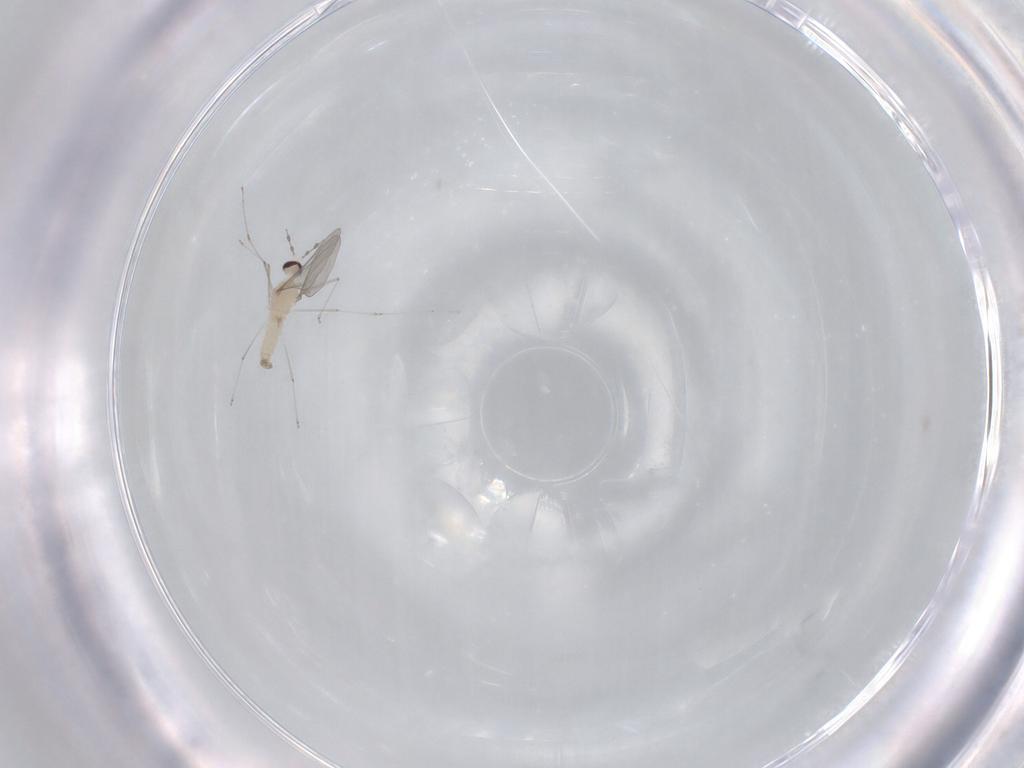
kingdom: Animalia
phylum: Arthropoda
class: Insecta
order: Diptera
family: Cecidomyiidae
